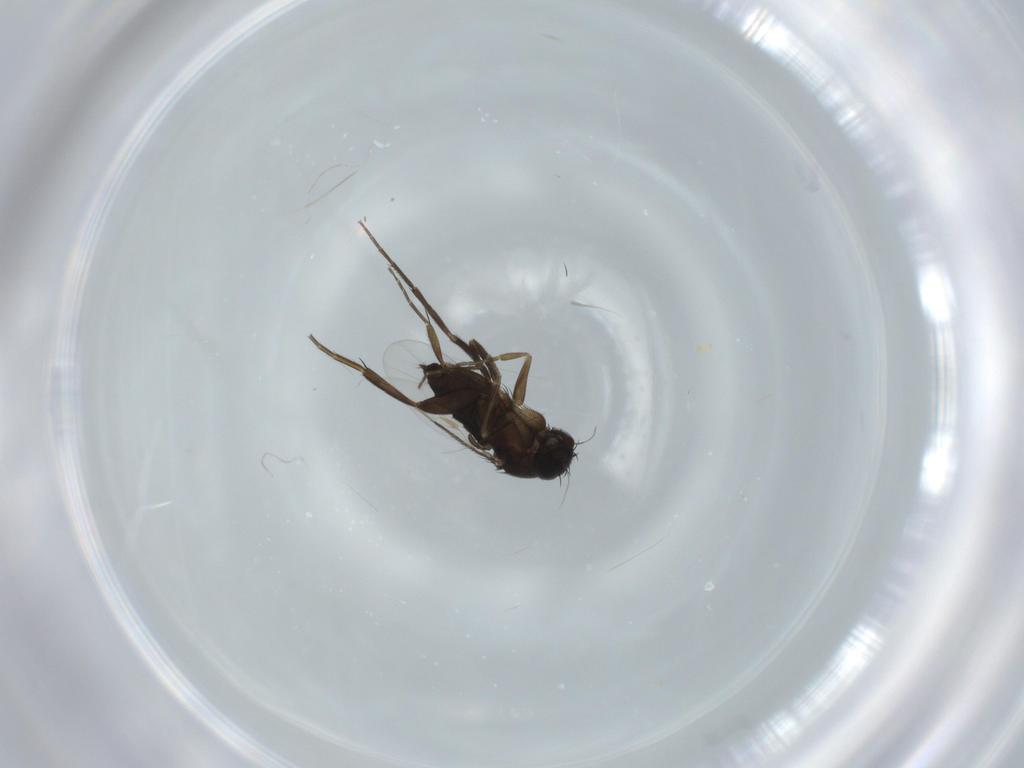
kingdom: Animalia
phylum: Arthropoda
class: Insecta
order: Diptera
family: Phoridae
